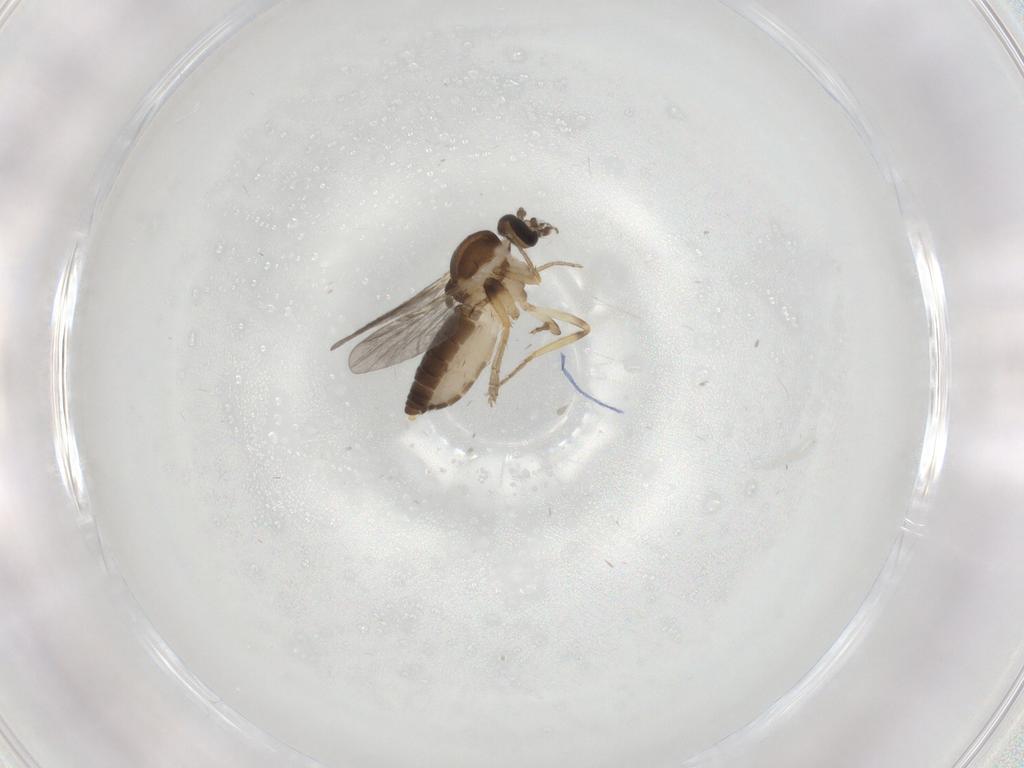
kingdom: Animalia
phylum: Arthropoda
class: Insecta
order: Diptera
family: Ceratopogonidae
